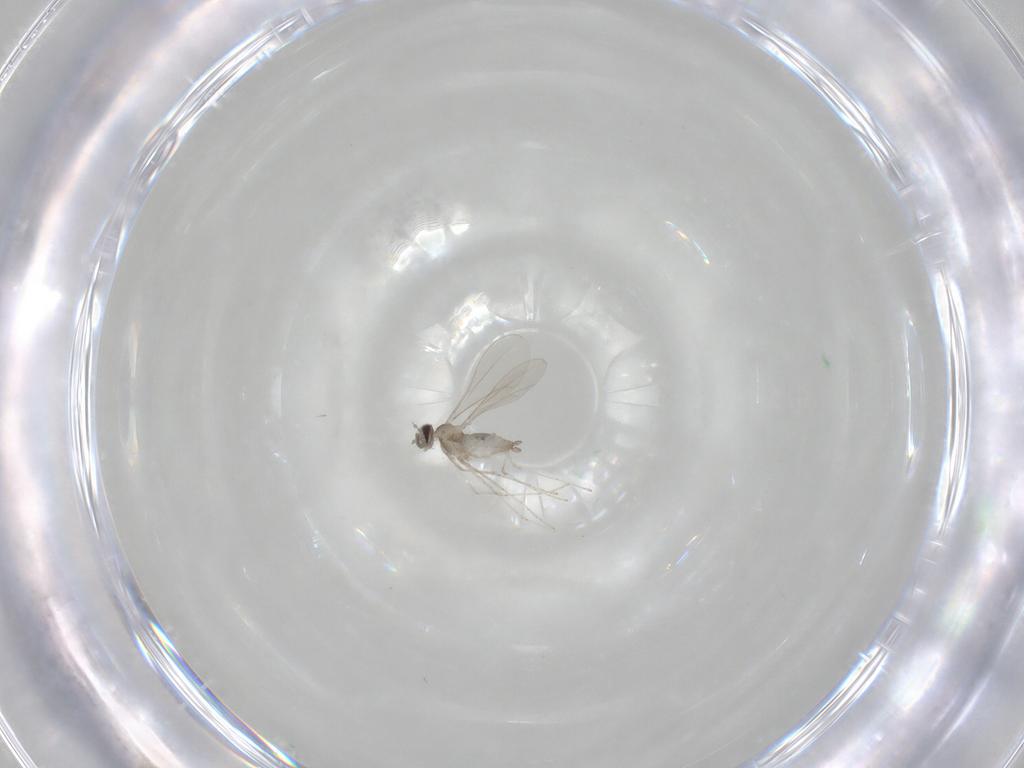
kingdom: Animalia
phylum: Arthropoda
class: Insecta
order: Diptera
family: Cecidomyiidae
